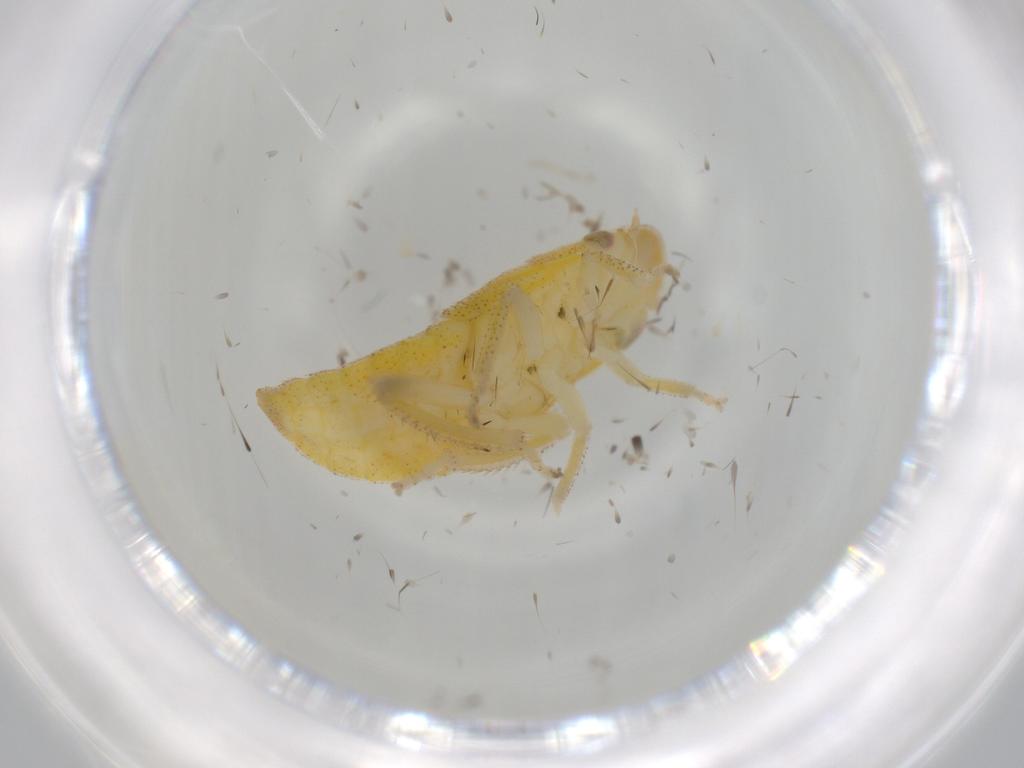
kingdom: Animalia
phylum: Arthropoda
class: Insecta
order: Hemiptera
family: Cicadellidae
